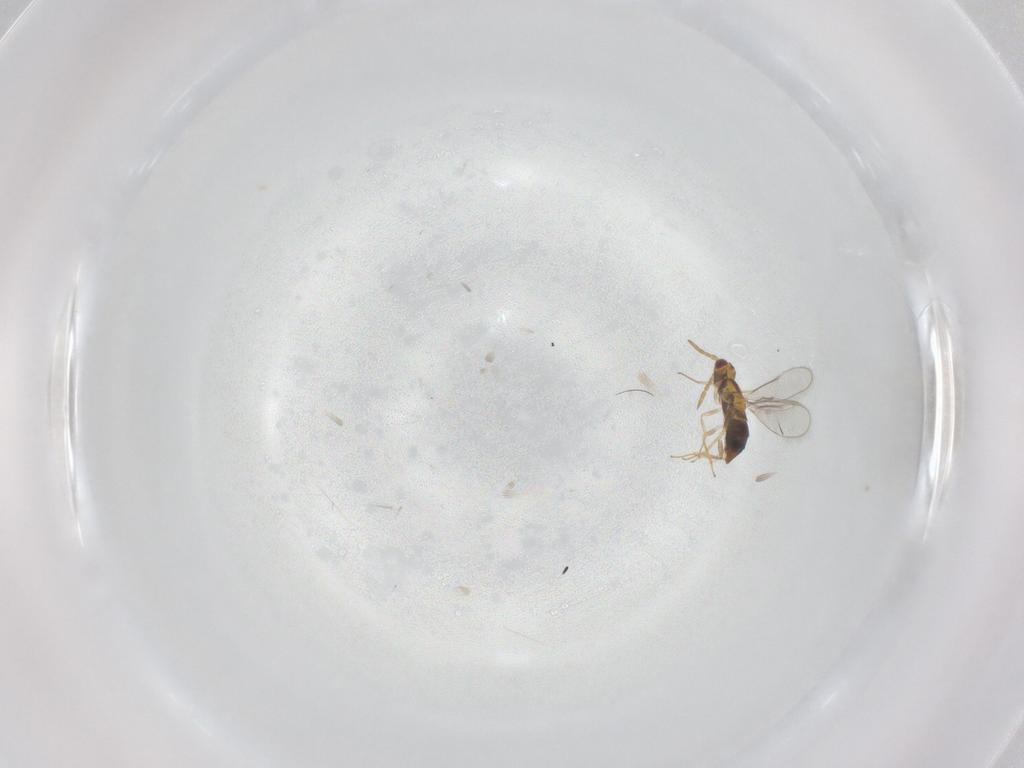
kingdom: Animalia
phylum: Arthropoda
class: Insecta
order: Hymenoptera
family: Aphelinidae
